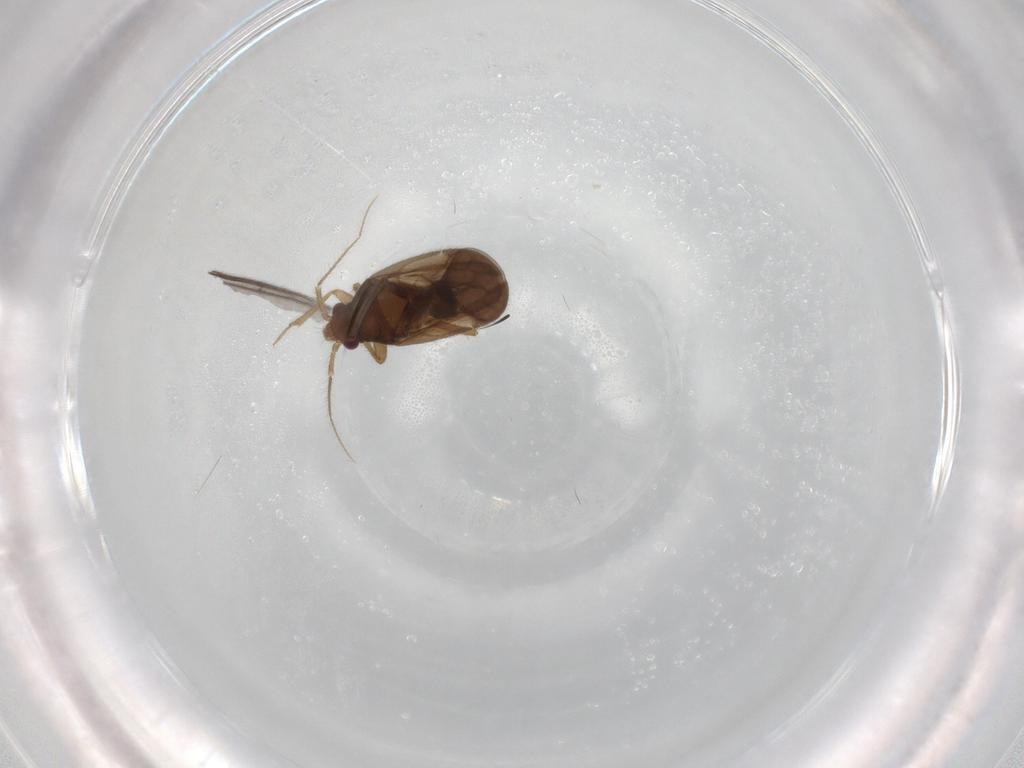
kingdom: Animalia
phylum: Arthropoda
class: Insecta
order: Hemiptera
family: Ceratocombidae
